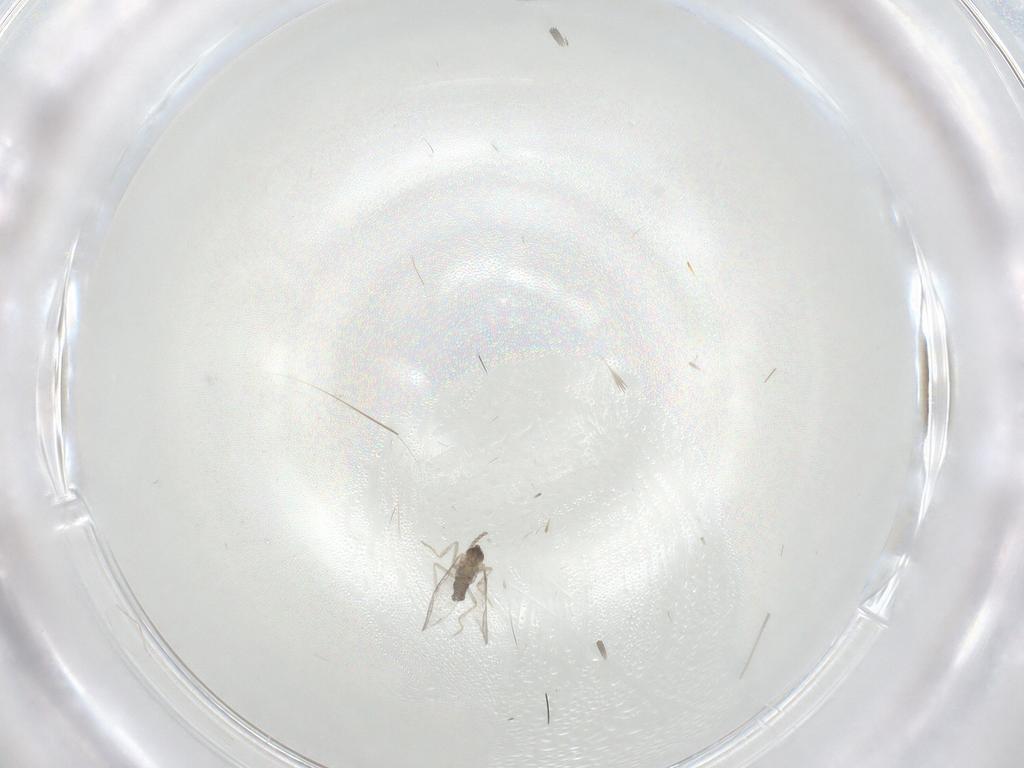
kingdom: Animalia
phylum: Arthropoda
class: Insecta
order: Diptera
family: Cecidomyiidae
